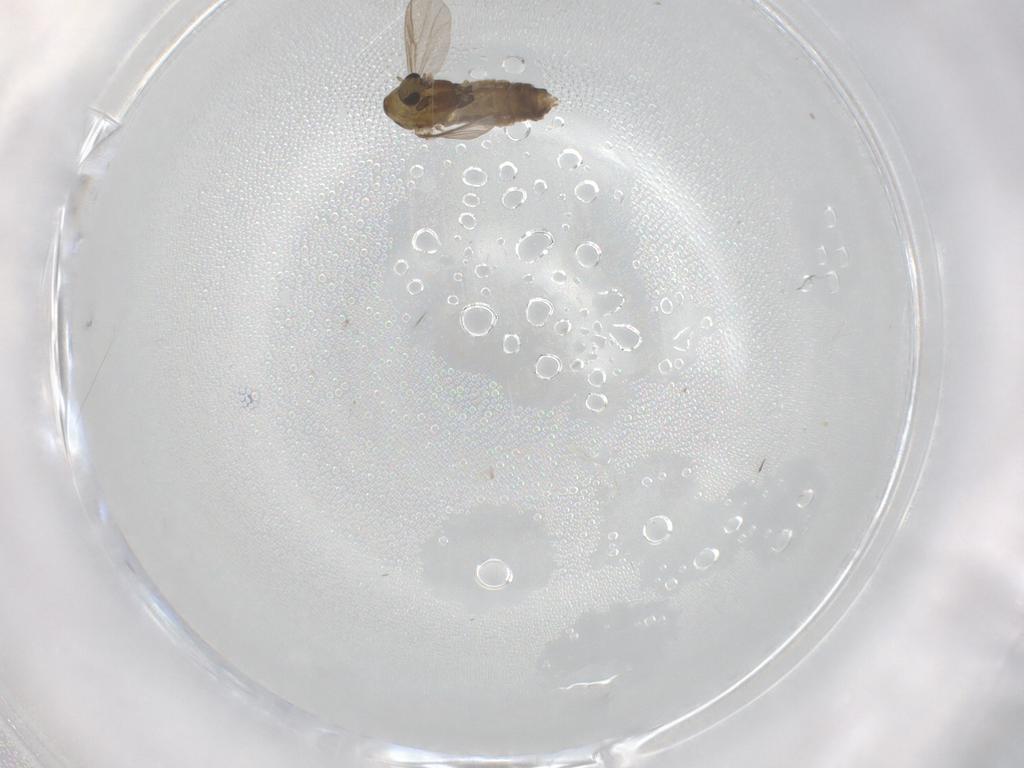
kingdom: Animalia
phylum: Arthropoda
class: Insecta
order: Diptera
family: Chironomidae
